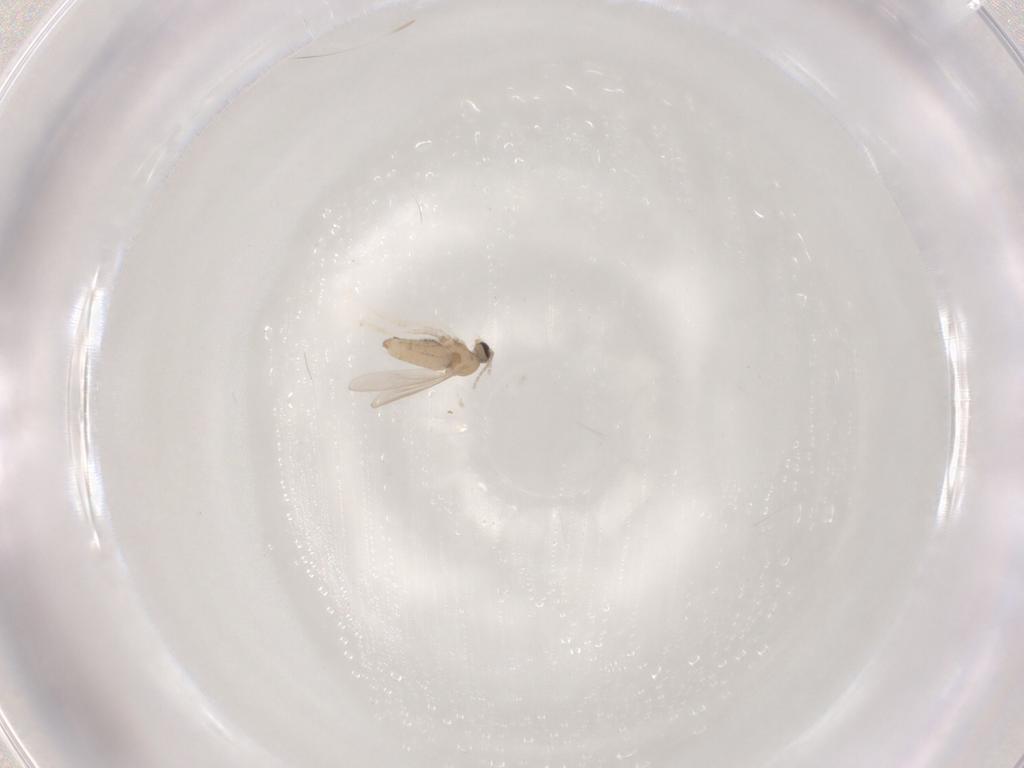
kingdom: Animalia
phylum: Arthropoda
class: Insecta
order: Diptera
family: Cecidomyiidae
